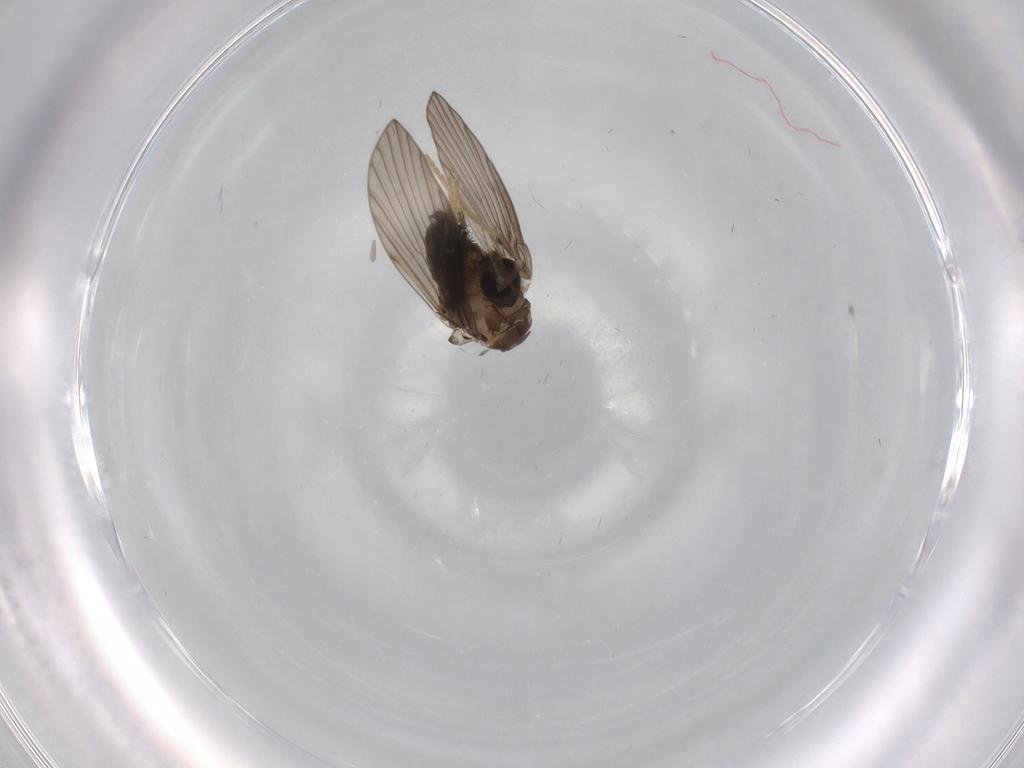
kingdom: Animalia
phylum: Arthropoda
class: Insecta
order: Diptera
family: Psychodidae
